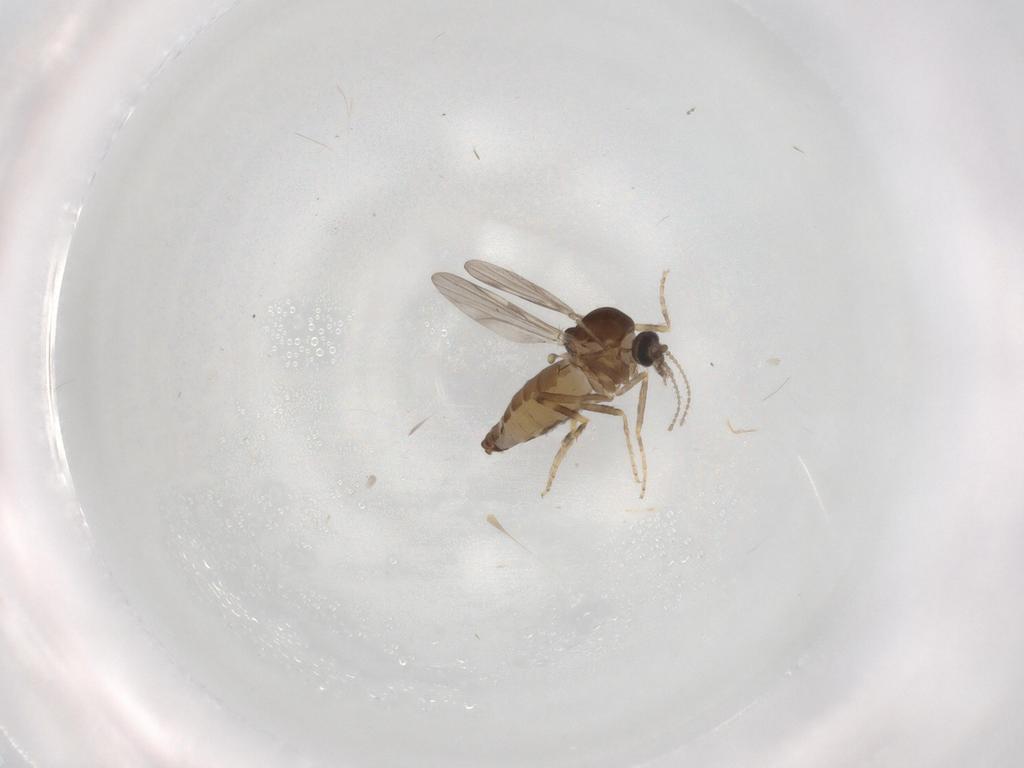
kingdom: Animalia
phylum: Arthropoda
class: Insecta
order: Diptera
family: Ceratopogonidae
